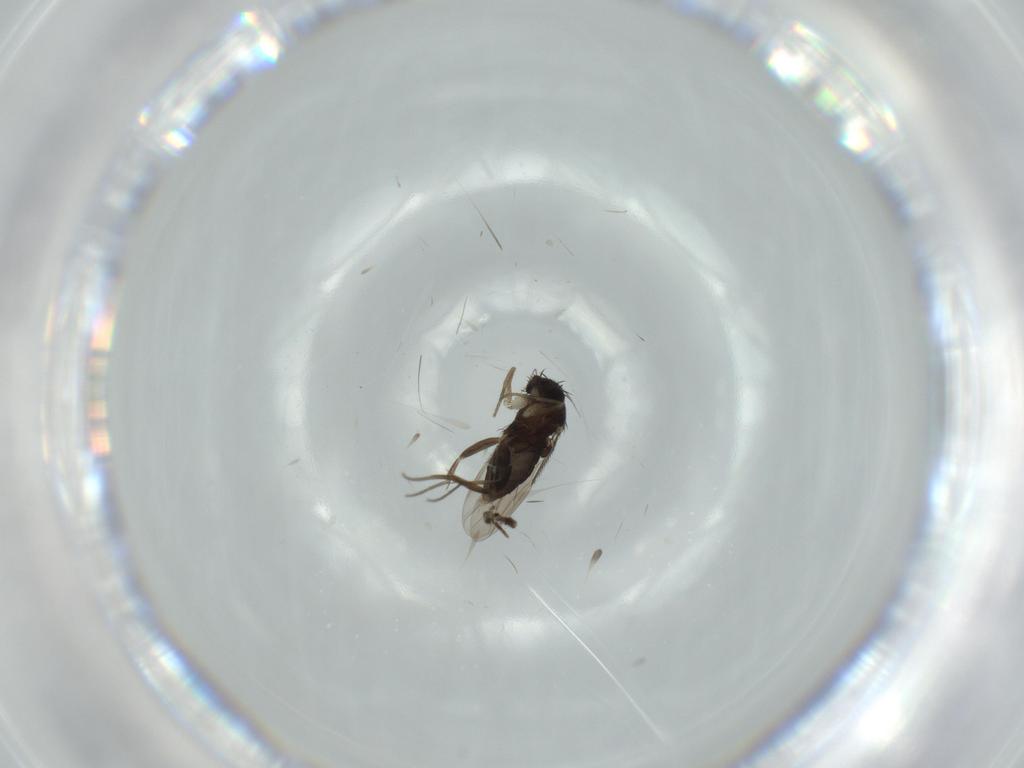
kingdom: Animalia
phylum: Arthropoda
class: Insecta
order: Diptera
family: Phoridae
